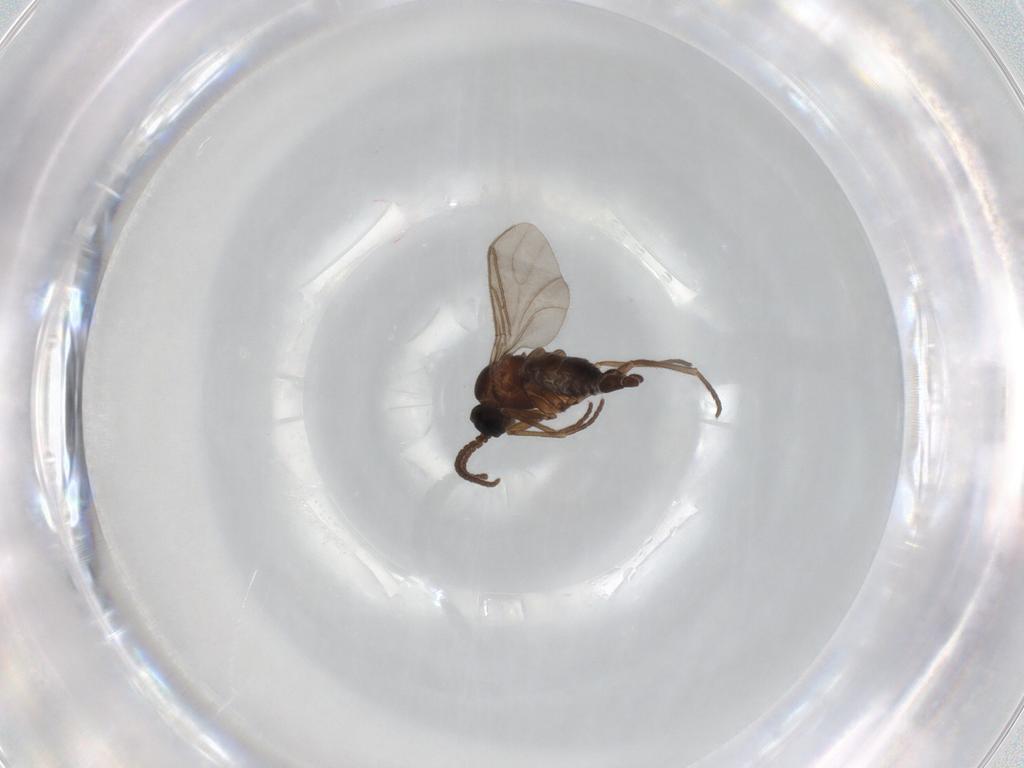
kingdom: Animalia
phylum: Arthropoda
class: Insecta
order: Diptera
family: Sciaridae
